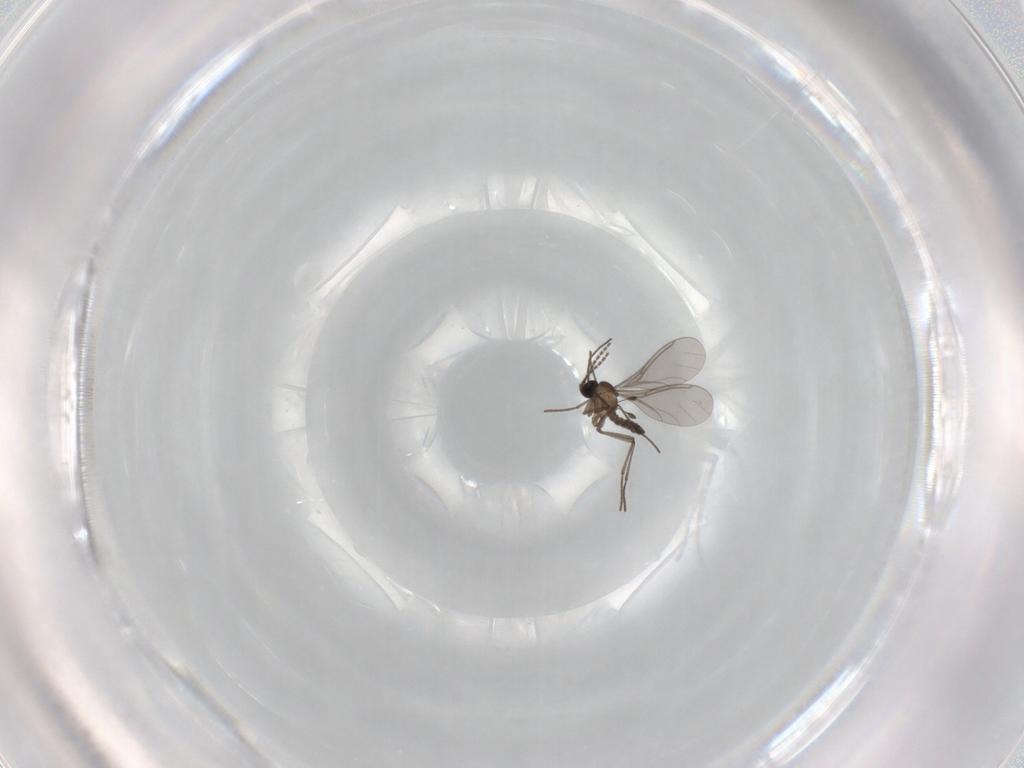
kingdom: Animalia
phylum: Arthropoda
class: Insecta
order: Diptera
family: Sciaridae
